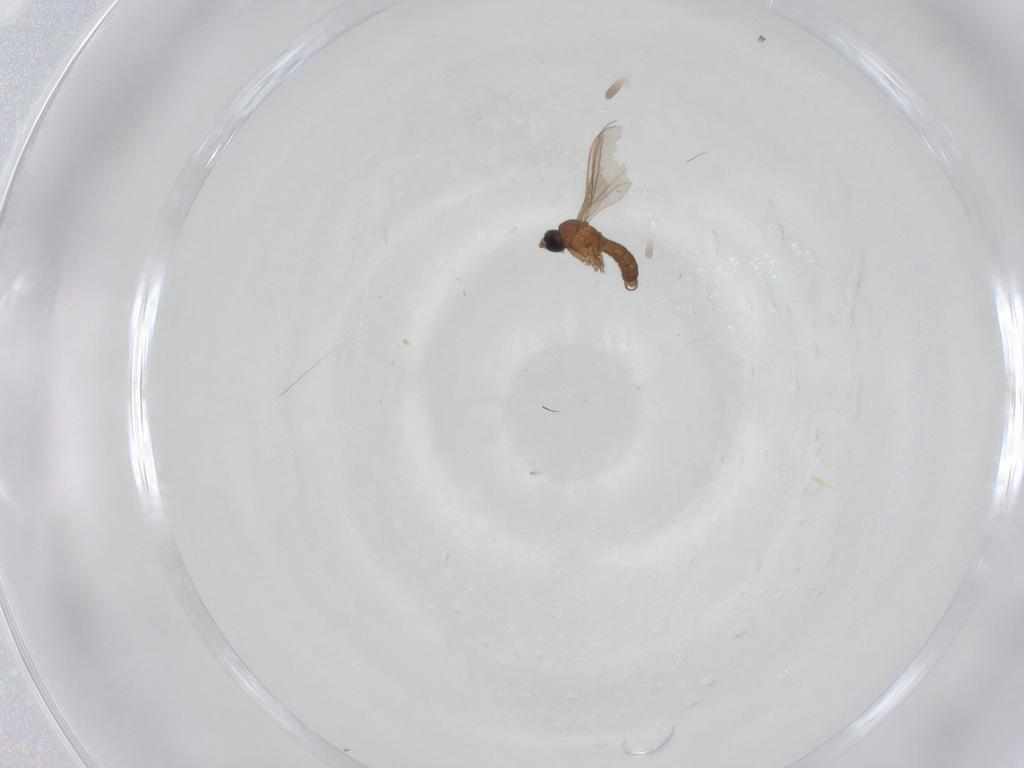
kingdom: Animalia
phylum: Arthropoda
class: Insecta
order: Diptera
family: Sciaridae
